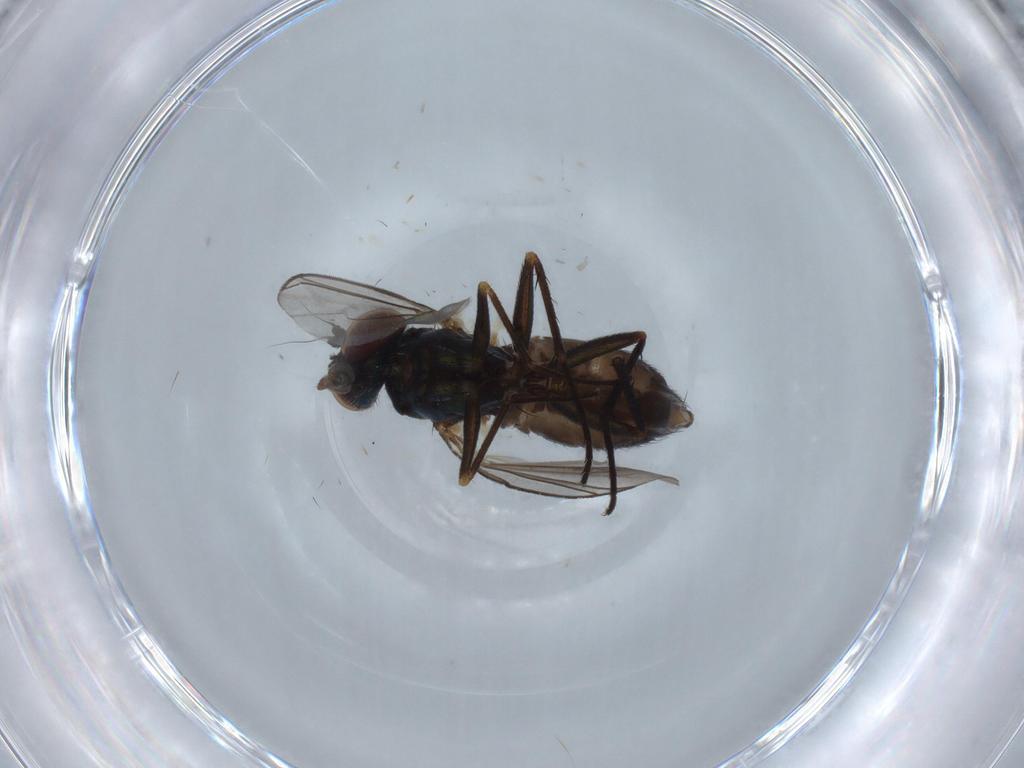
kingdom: Animalia
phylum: Arthropoda
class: Insecta
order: Diptera
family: Dolichopodidae
